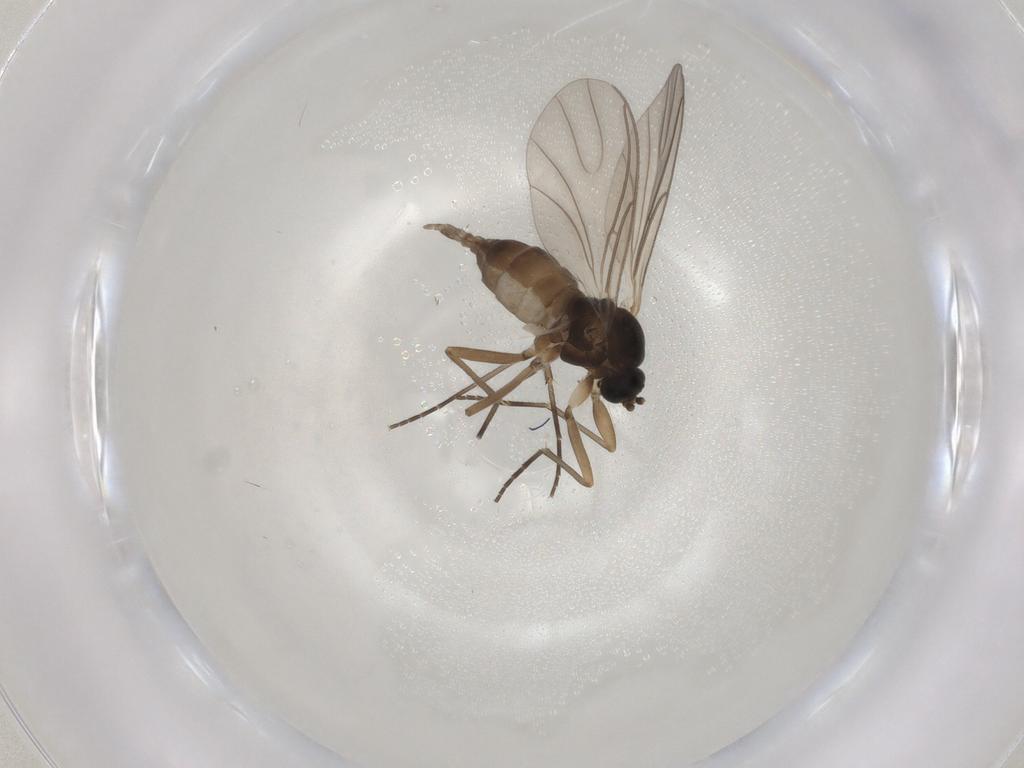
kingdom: Animalia
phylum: Arthropoda
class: Insecta
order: Diptera
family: Sciaridae
